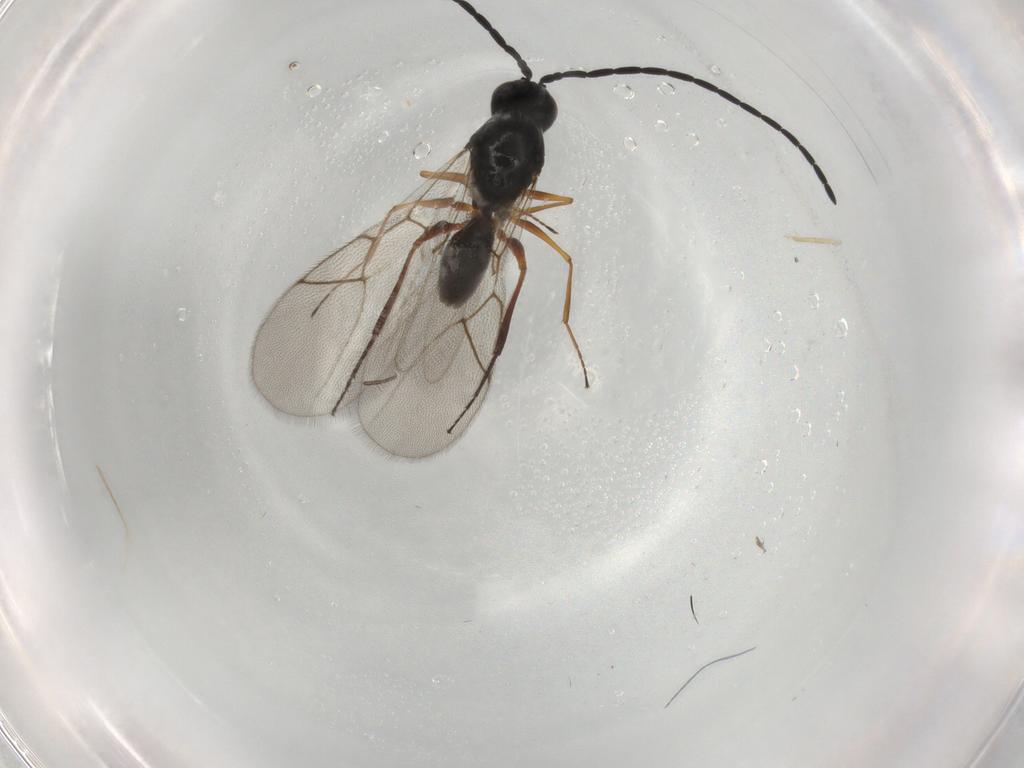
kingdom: Animalia
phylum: Arthropoda
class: Insecta
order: Hymenoptera
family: Figitidae
